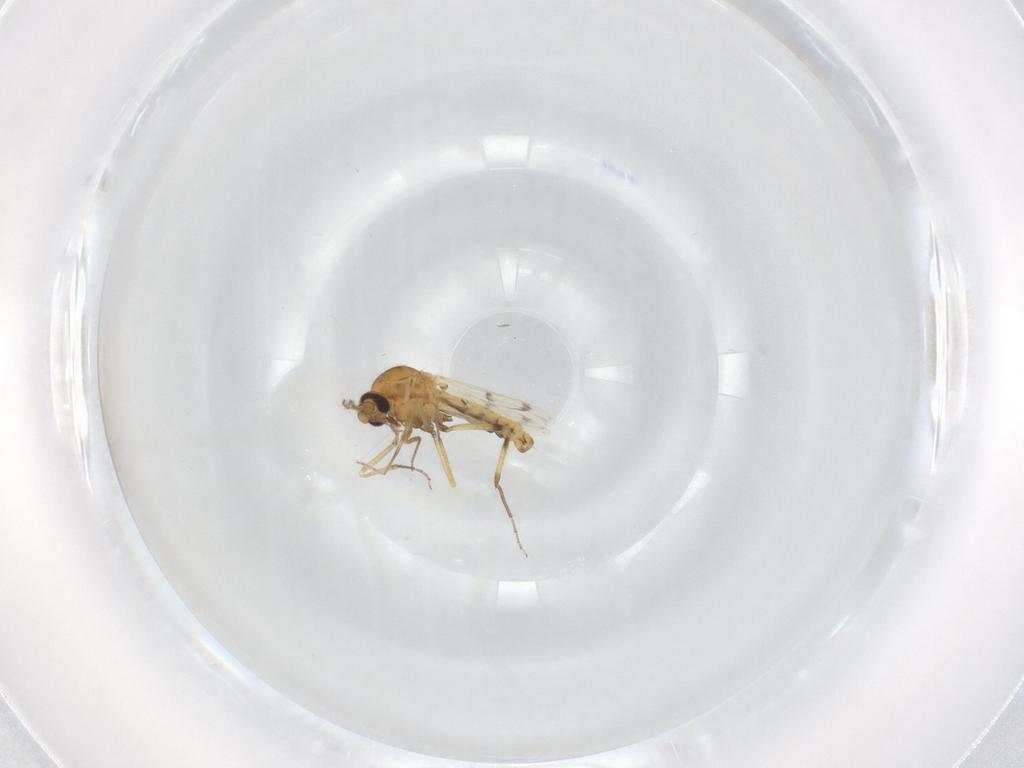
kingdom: Animalia
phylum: Arthropoda
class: Insecta
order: Diptera
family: Ceratopogonidae
